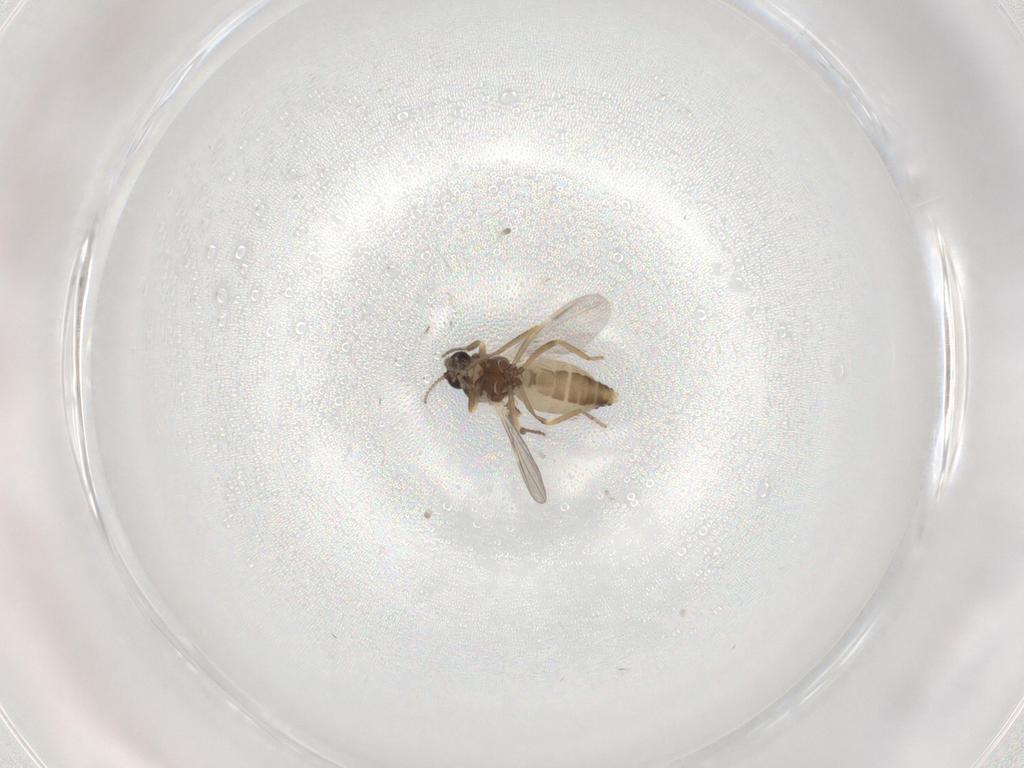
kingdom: Animalia
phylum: Arthropoda
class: Insecta
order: Diptera
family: Ceratopogonidae
